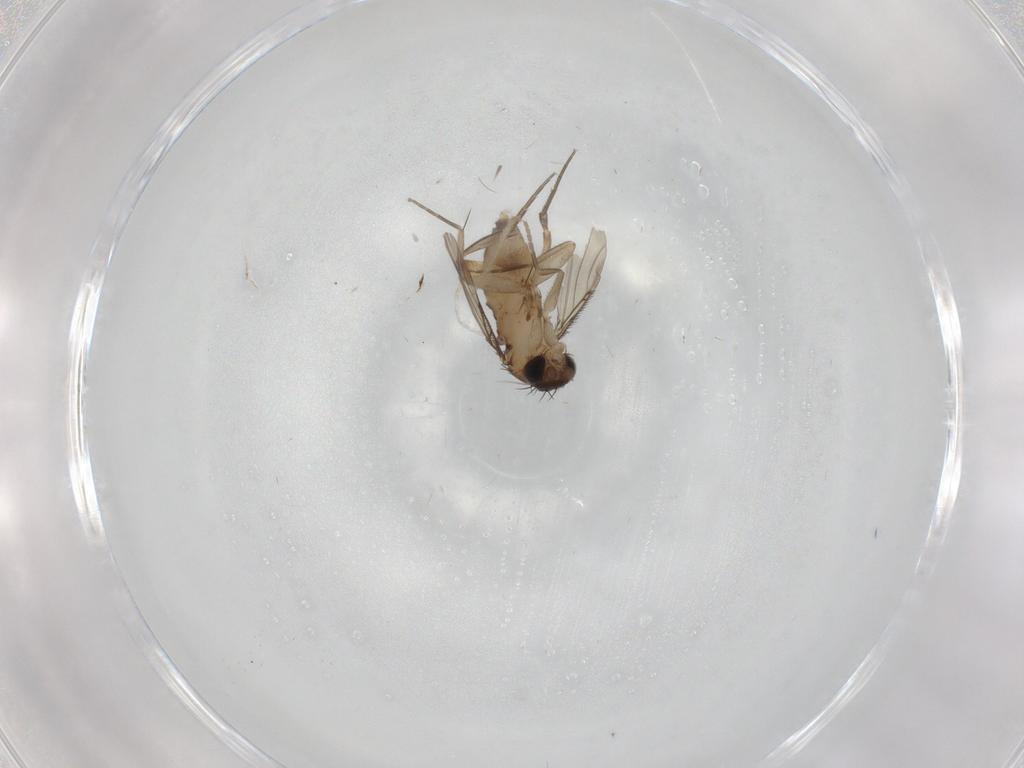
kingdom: Animalia
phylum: Arthropoda
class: Insecta
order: Diptera
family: Phoridae
